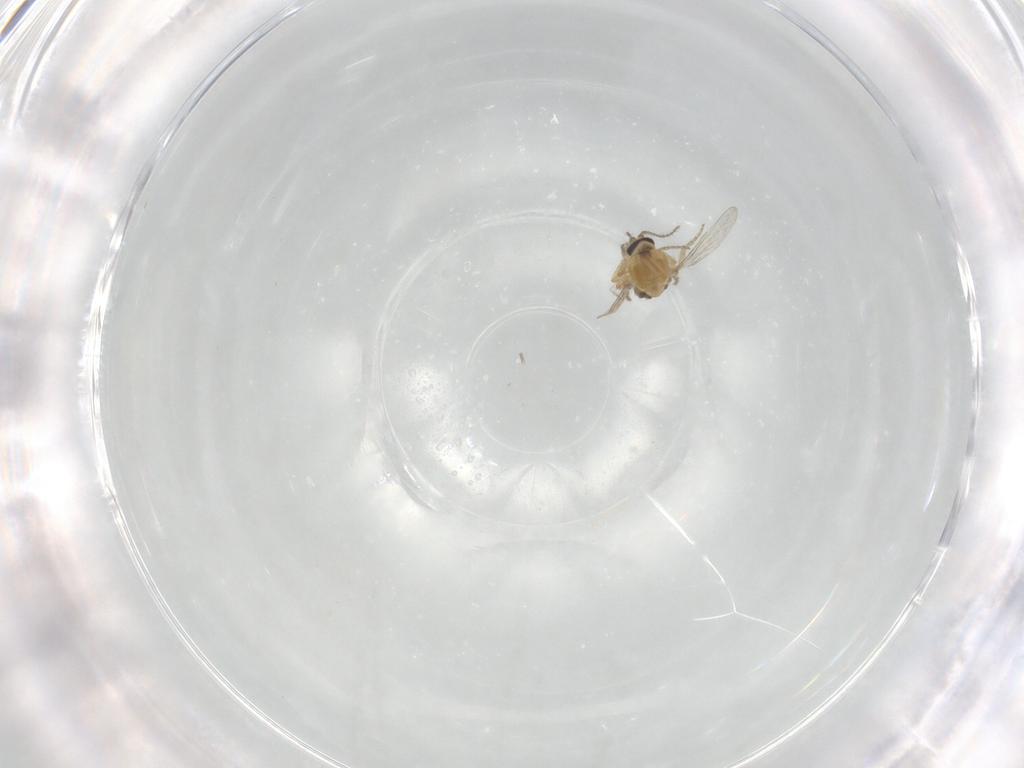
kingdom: Animalia
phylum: Arthropoda
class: Insecta
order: Diptera
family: Ceratopogonidae
